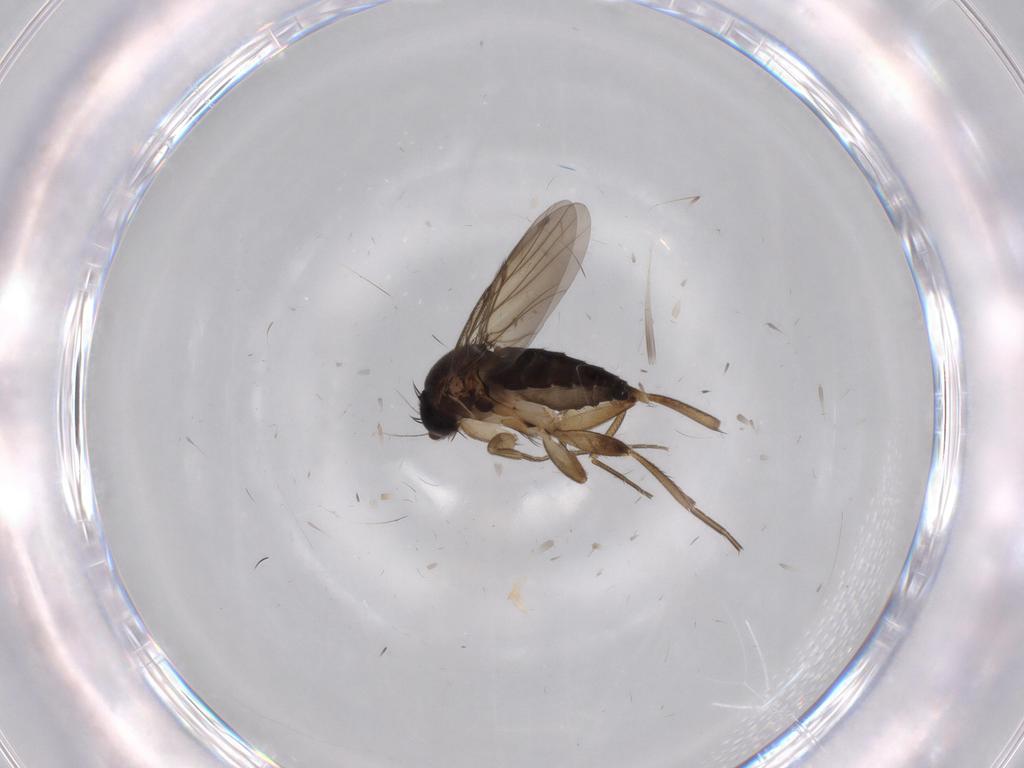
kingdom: Animalia
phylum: Arthropoda
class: Insecta
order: Diptera
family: Phoridae
